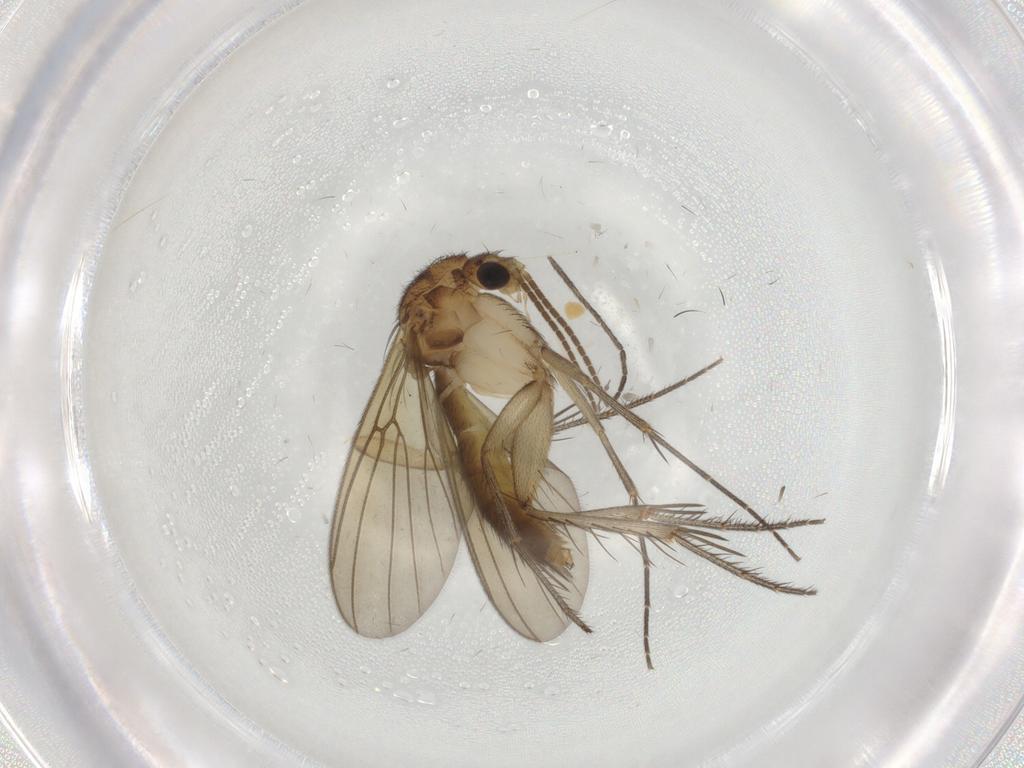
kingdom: Animalia
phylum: Arthropoda
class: Insecta
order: Diptera
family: Mycetophilidae
